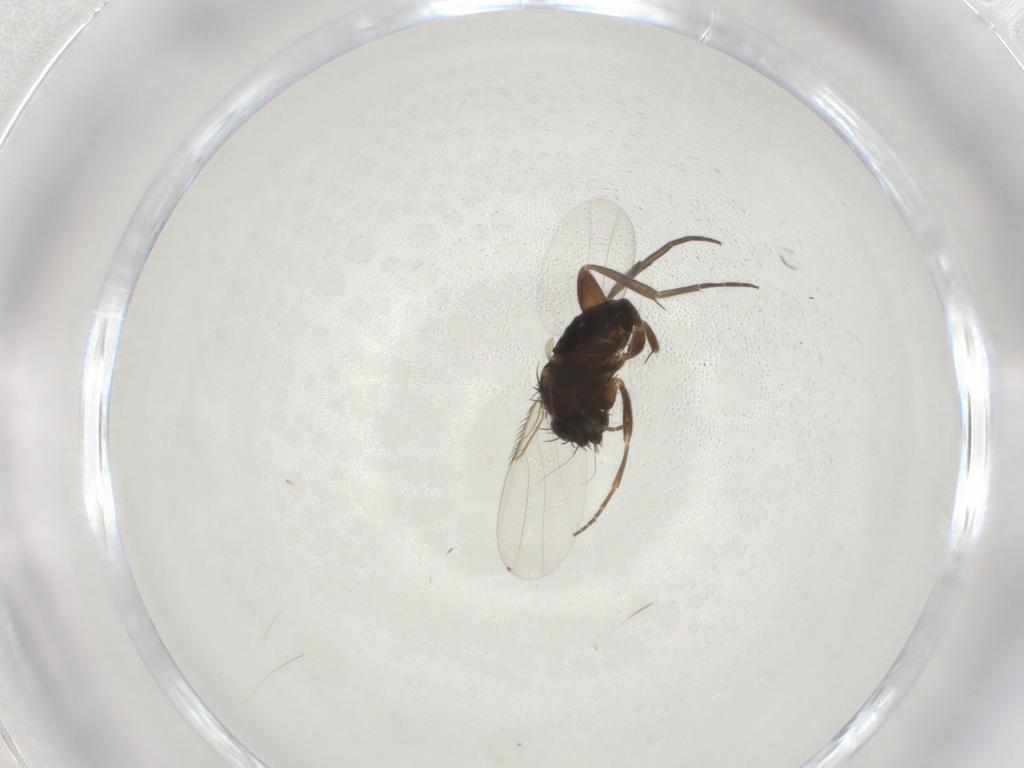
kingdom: Animalia
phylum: Arthropoda
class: Insecta
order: Diptera
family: Phoridae
